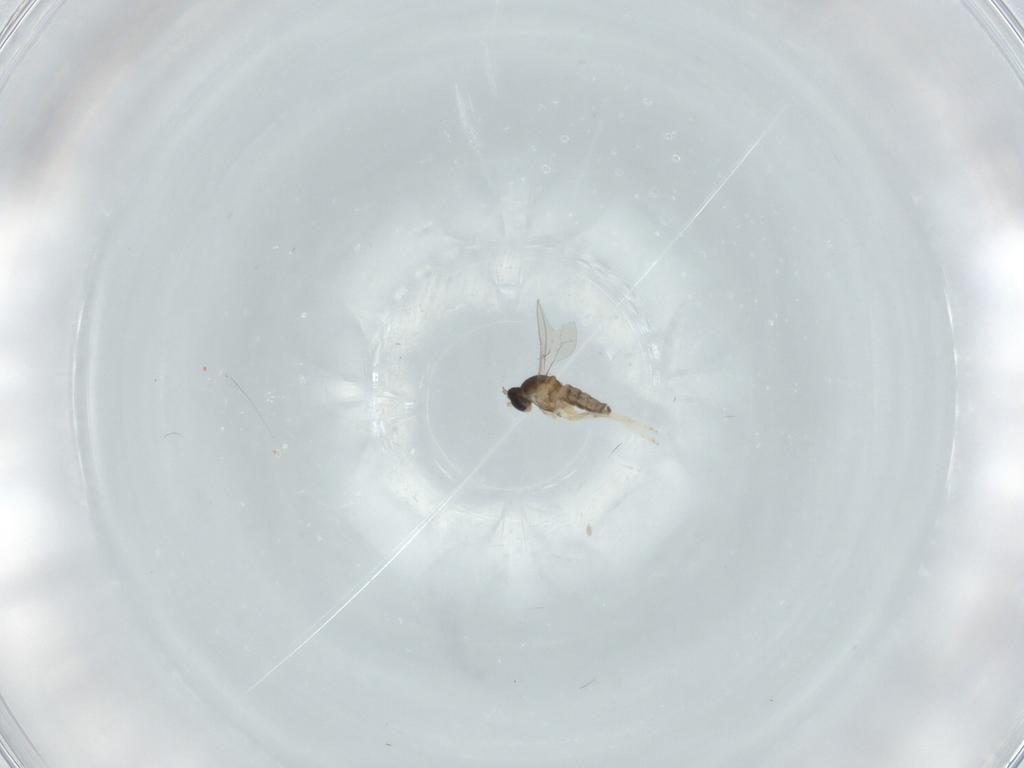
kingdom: Animalia
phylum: Arthropoda
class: Insecta
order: Diptera
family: Cecidomyiidae
